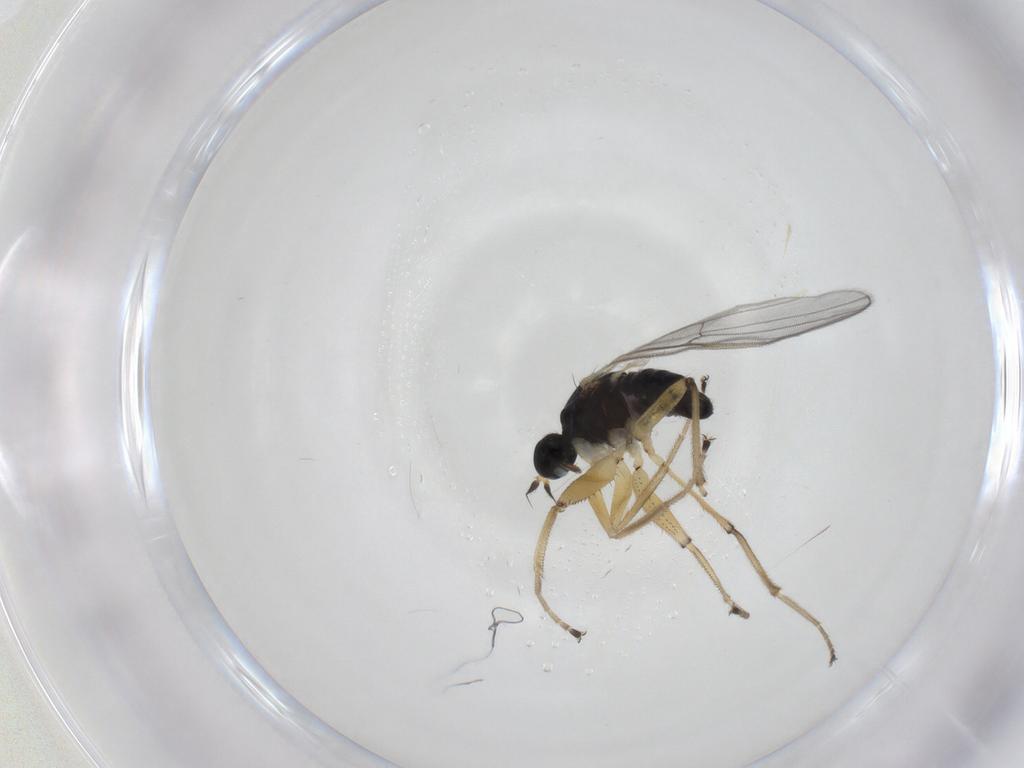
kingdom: Animalia
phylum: Arthropoda
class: Insecta
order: Diptera
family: Hybotidae
